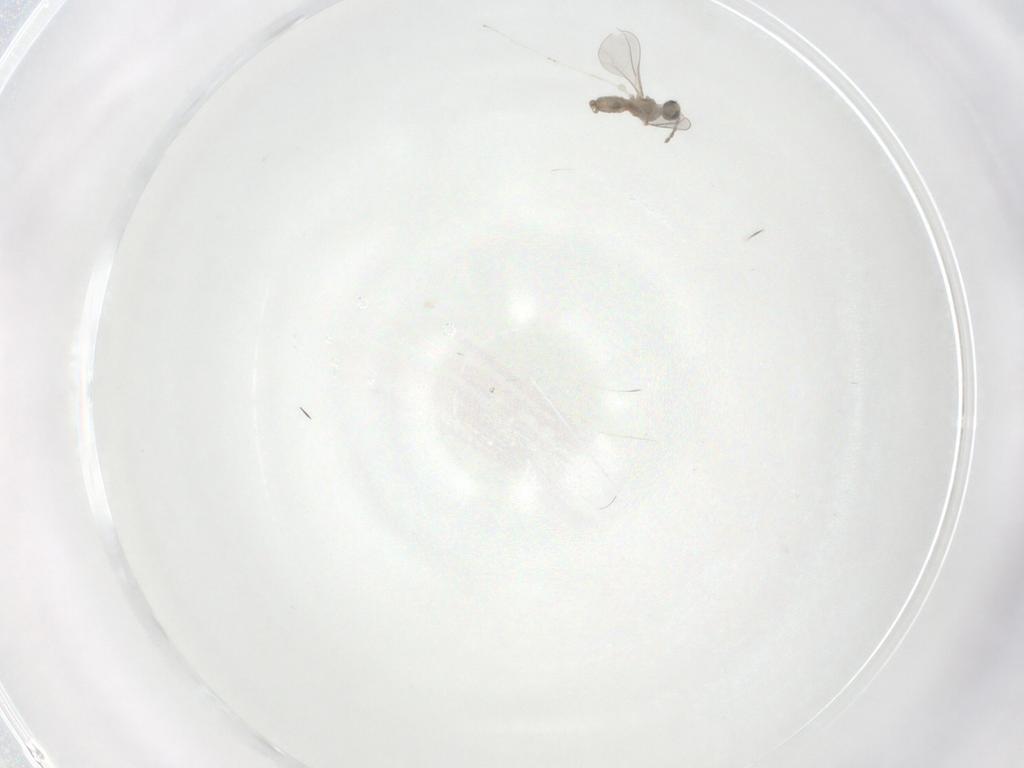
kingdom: Animalia
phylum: Arthropoda
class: Insecta
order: Diptera
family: Cecidomyiidae
